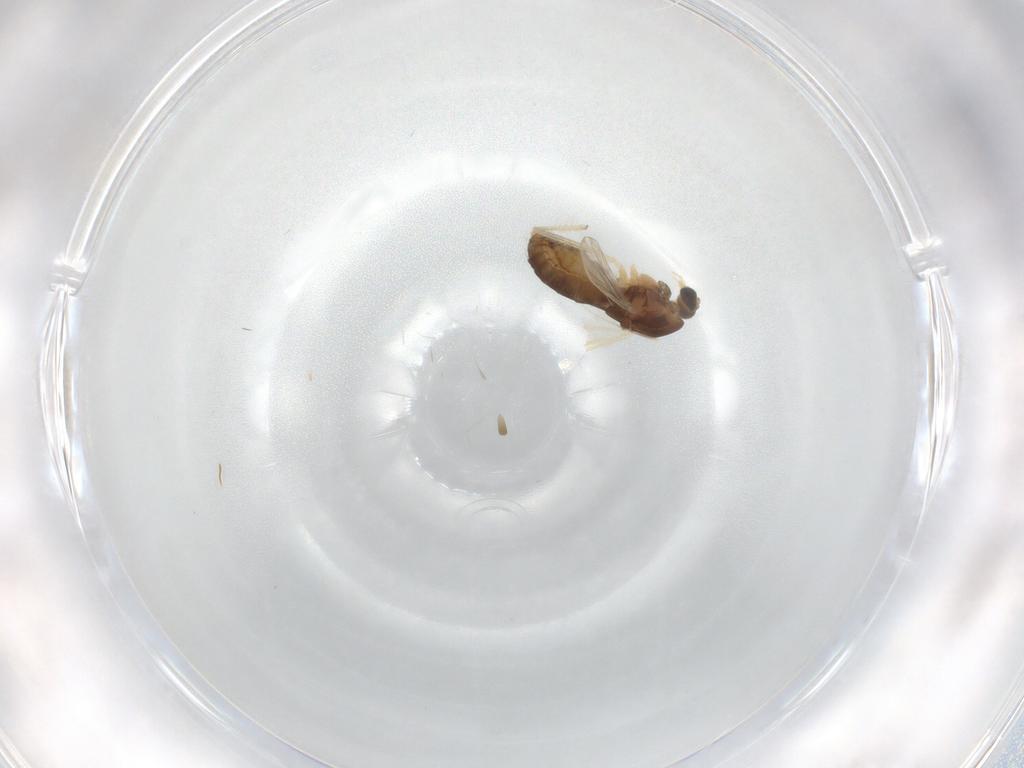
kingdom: Animalia
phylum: Arthropoda
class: Insecta
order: Diptera
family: Chironomidae
